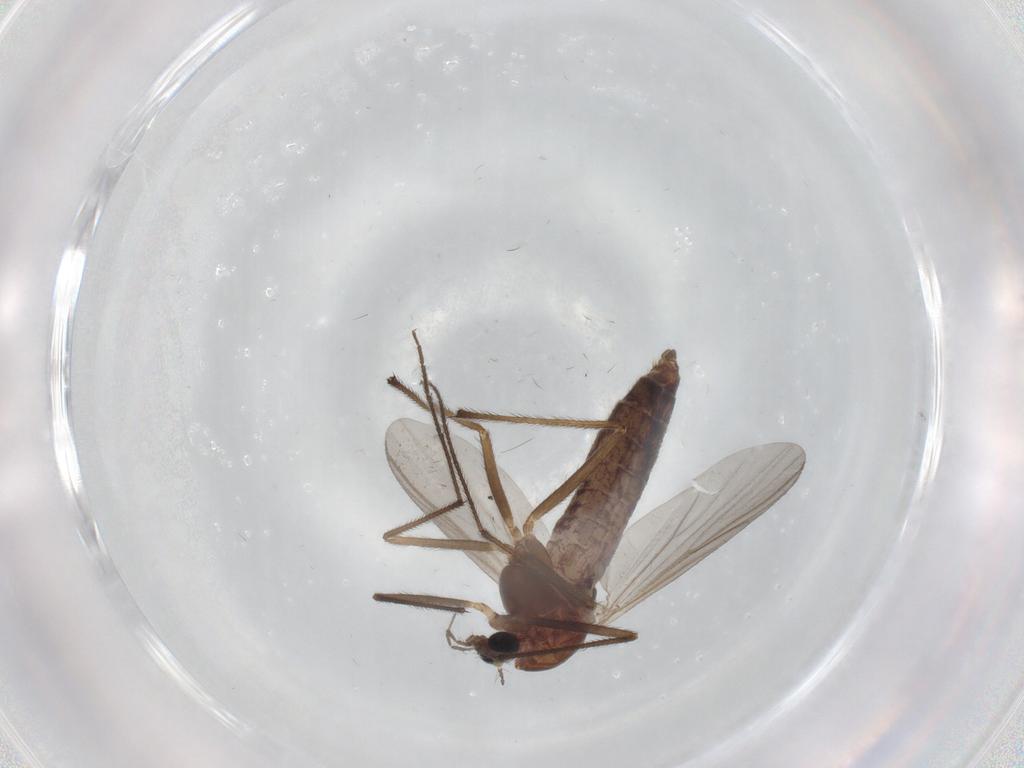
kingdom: Animalia
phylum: Arthropoda
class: Insecta
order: Diptera
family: Chironomidae
